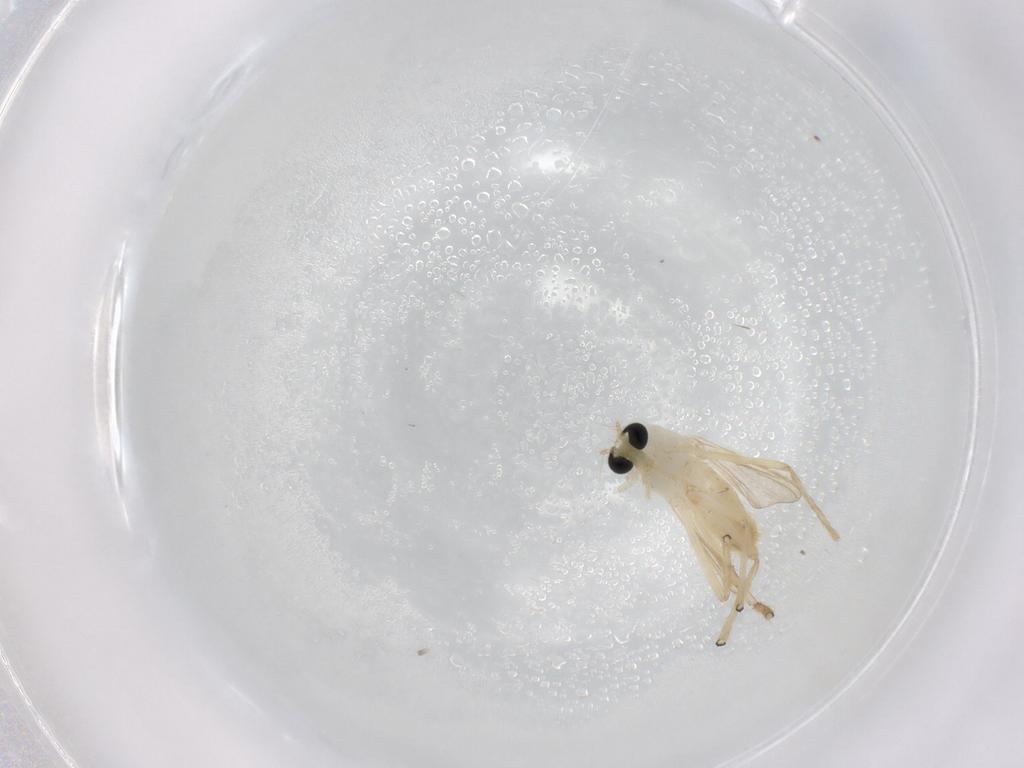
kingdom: Animalia
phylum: Arthropoda
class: Insecta
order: Diptera
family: Chironomidae
